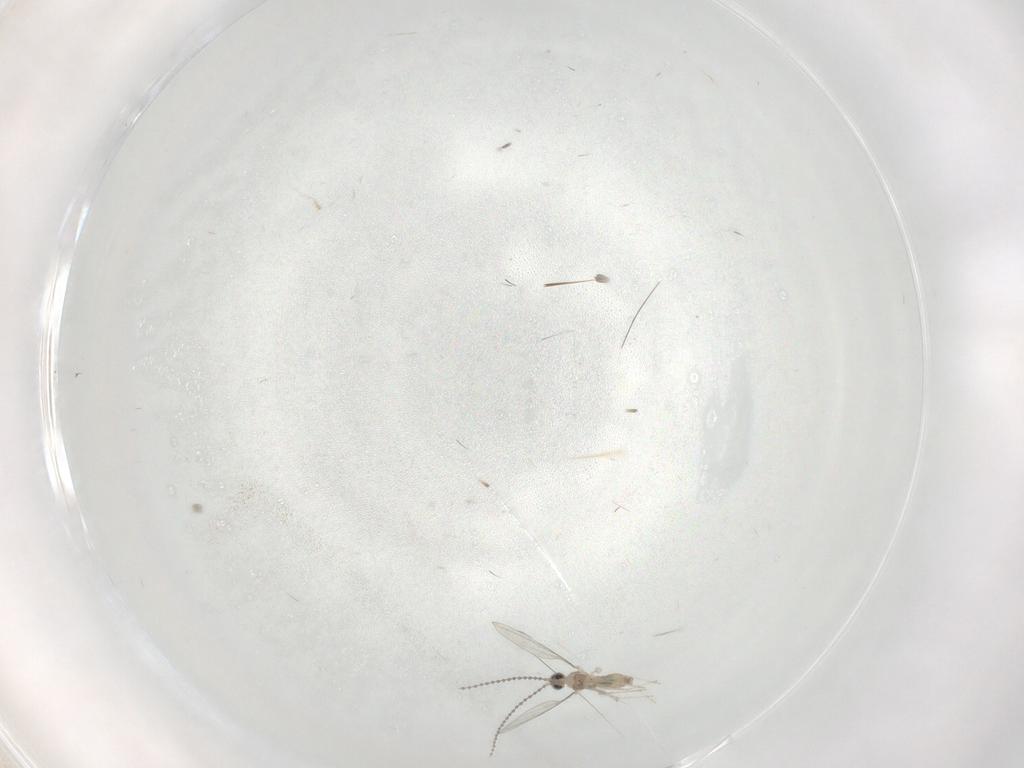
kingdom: Animalia
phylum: Arthropoda
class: Insecta
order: Diptera
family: Cecidomyiidae
